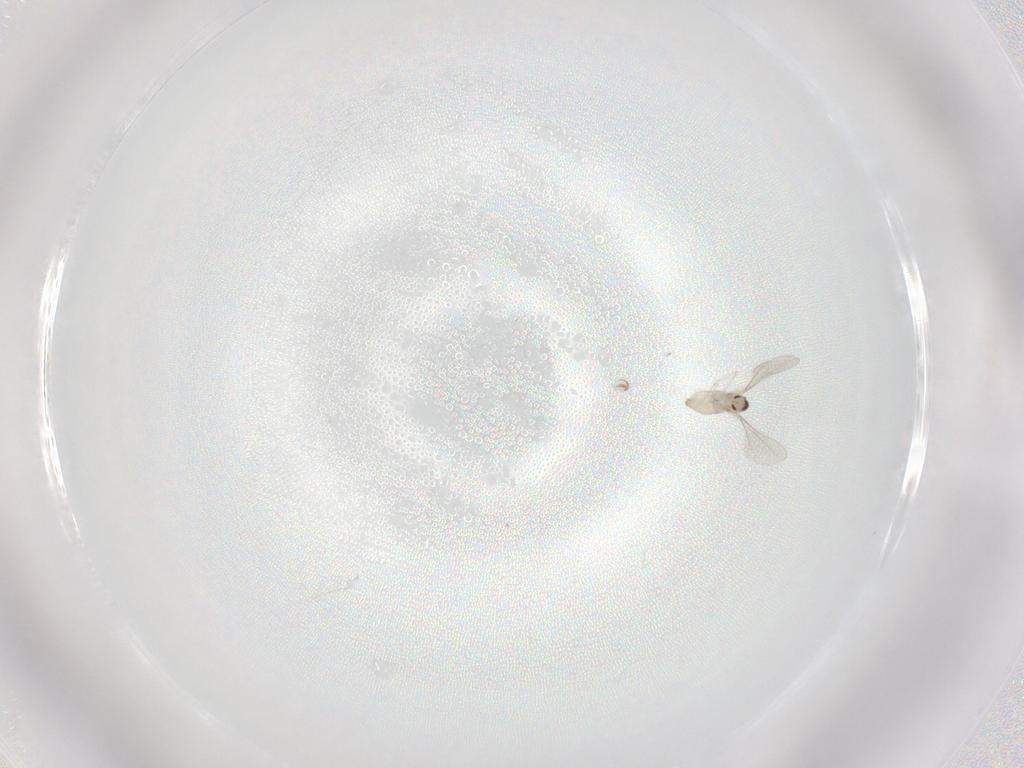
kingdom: Animalia
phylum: Arthropoda
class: Insecta
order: Diptera
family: Cecidomyiidae
